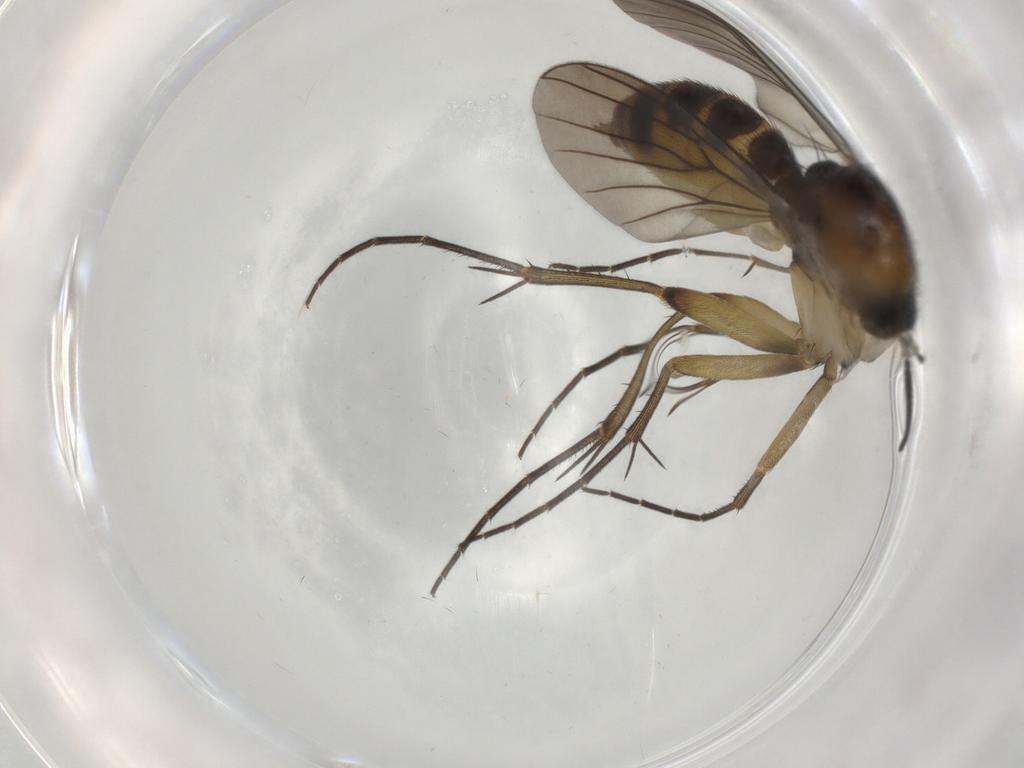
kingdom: Animalia
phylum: Arthropoda
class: Insecta
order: Diptera
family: Mycetophilidae
